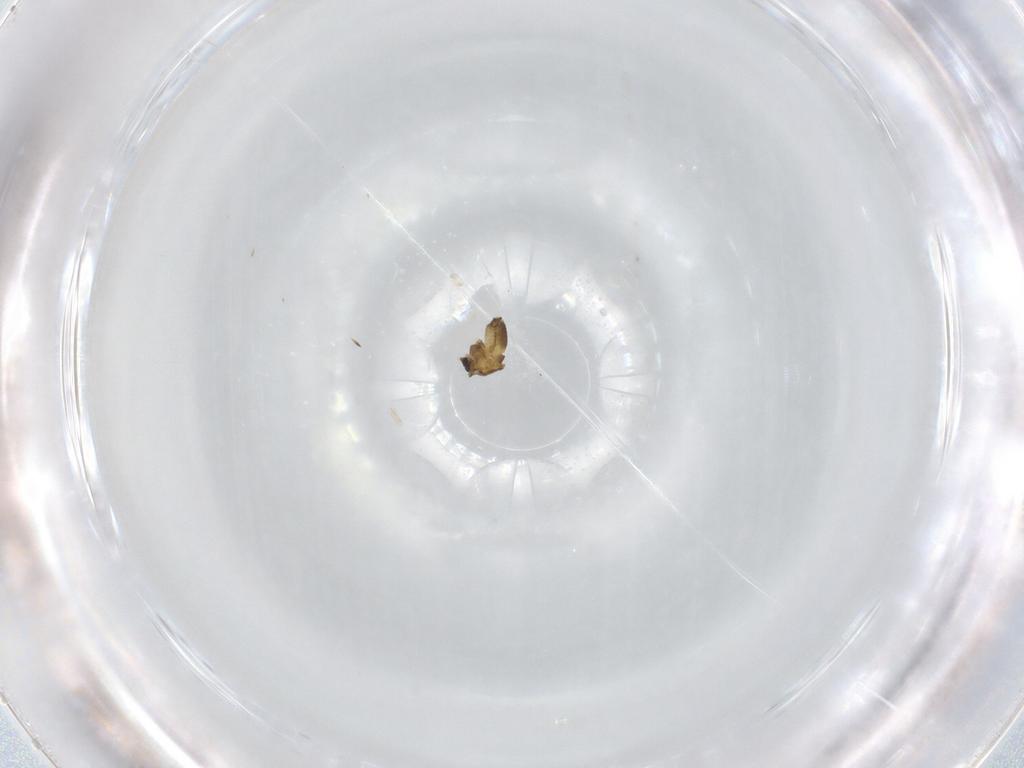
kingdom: Animalia
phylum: Arthropoda
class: Insecta
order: Diptera
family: Chironomidae
